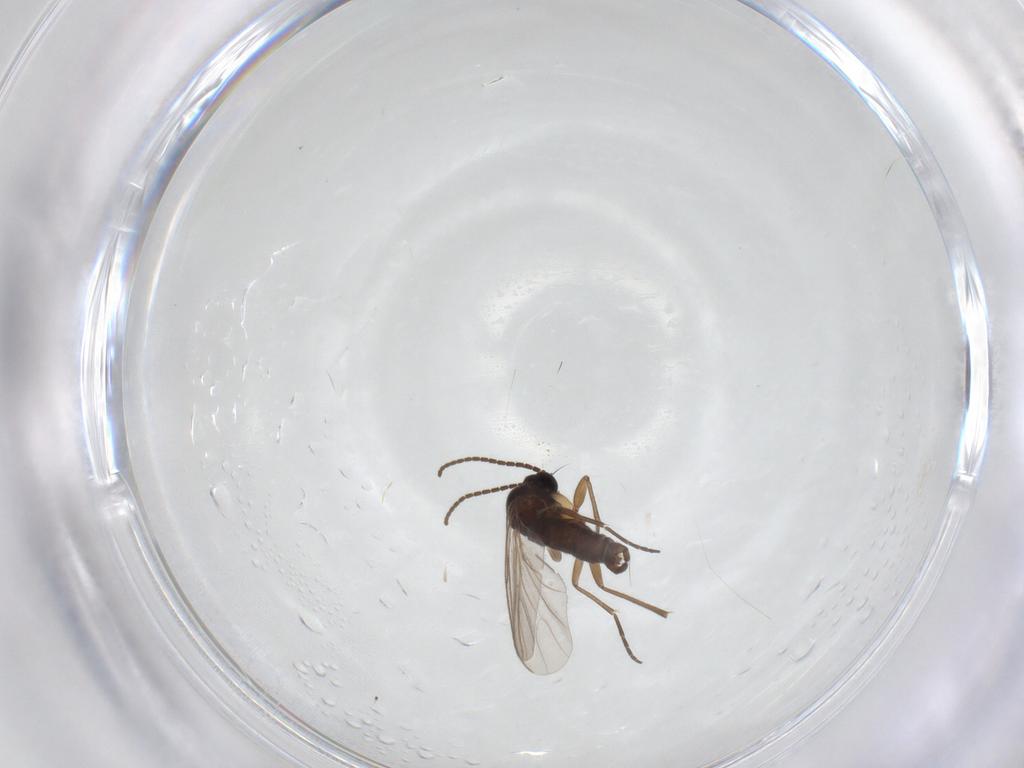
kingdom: Animalia
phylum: Arthropoda
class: Insecta
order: Diptera
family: Sciaridae
